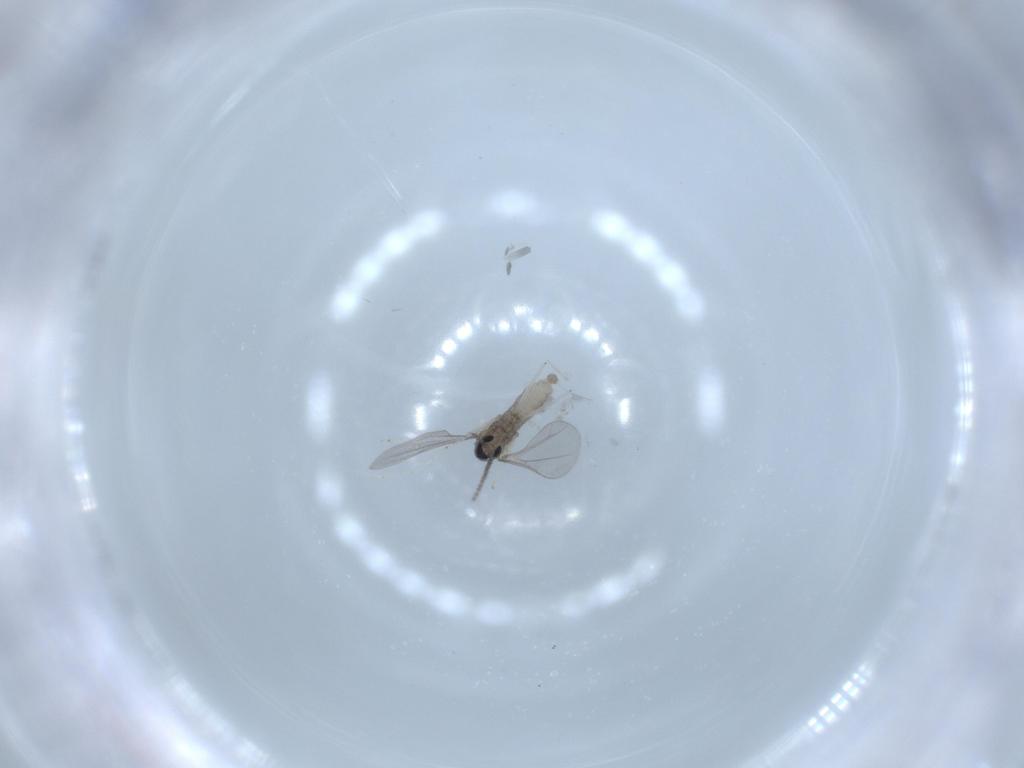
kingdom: Animalia
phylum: Arthropoda
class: Insecta
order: Diptera
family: Cecidomyiidae
